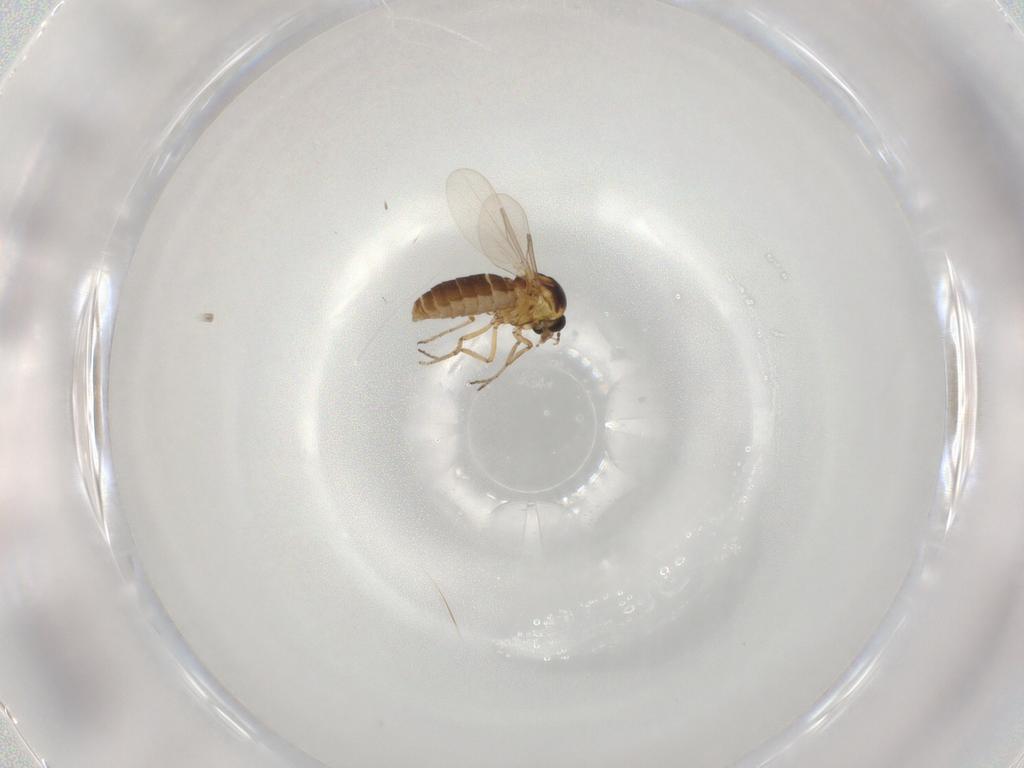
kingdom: Animalia
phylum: Arthropoda
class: Insecta
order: Diptera
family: Ceratopogonidae
